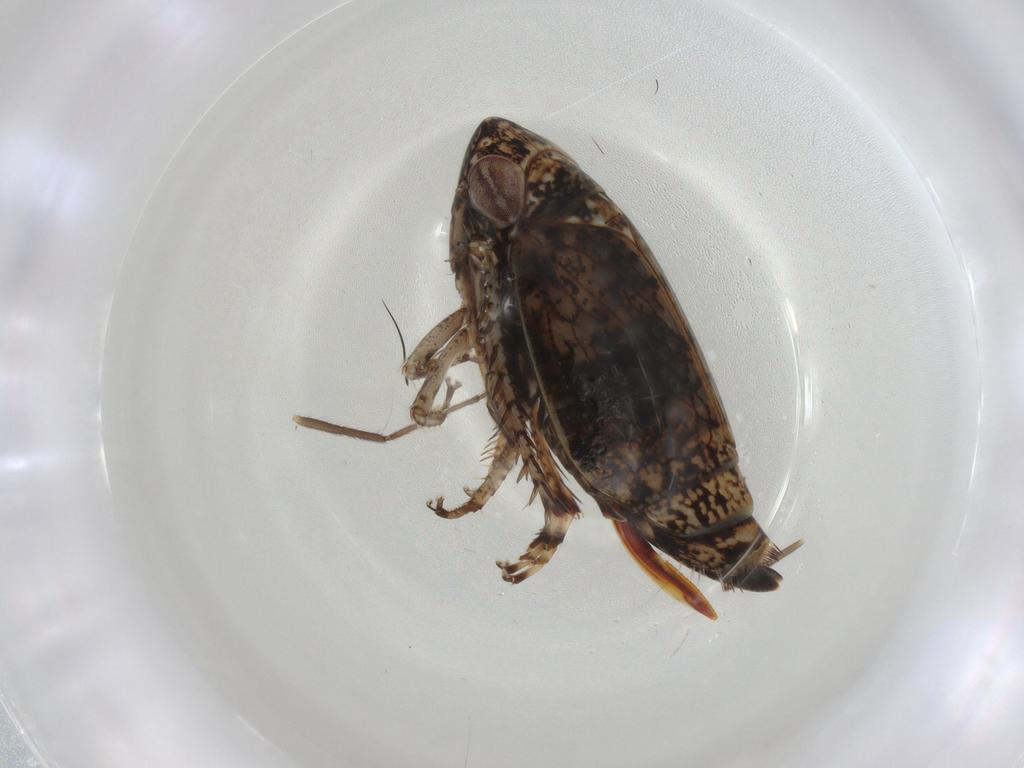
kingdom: Animalia
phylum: Arthropoda
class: Insecta
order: Hemiptera
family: Cicadellidae
